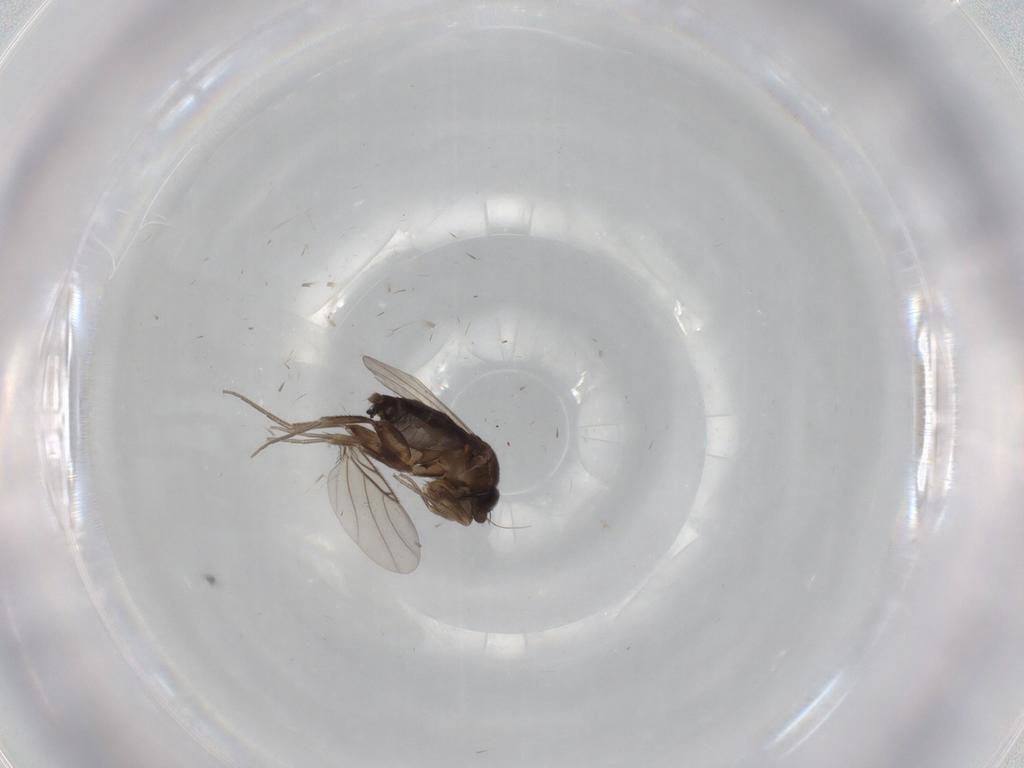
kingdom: Animalia
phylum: Arthropoda
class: Insecta
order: Diptera
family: Phoridae
